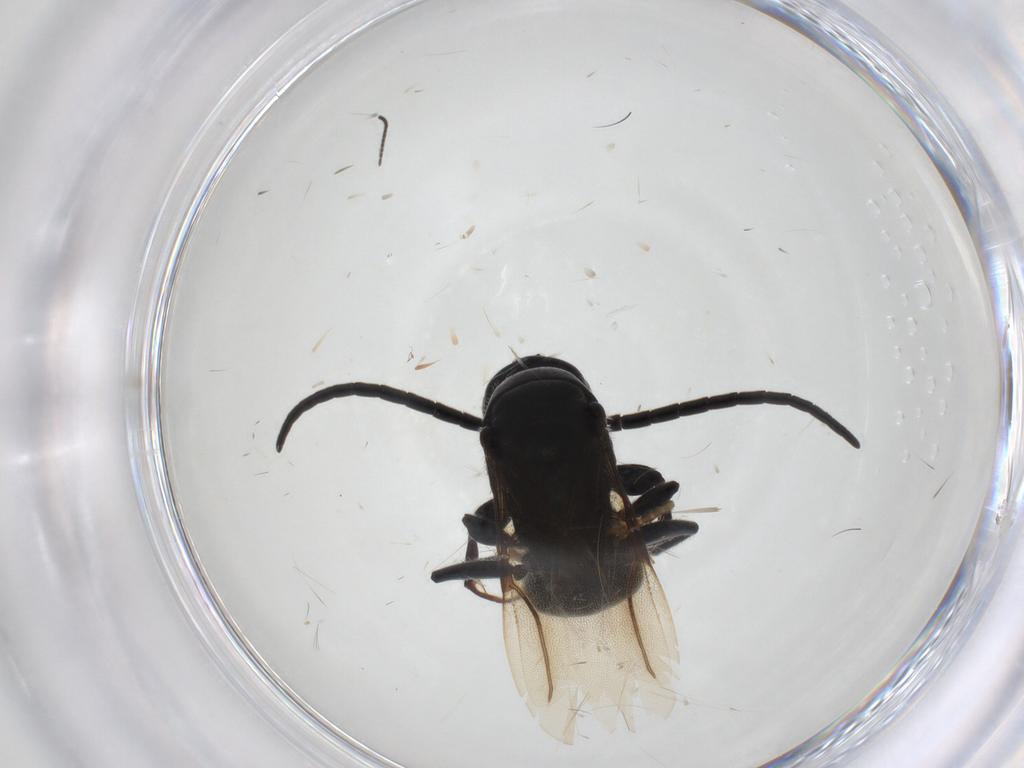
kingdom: Animalia
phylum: Arthropoda
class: Insecta
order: Hymenoptera
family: Bethylidae
